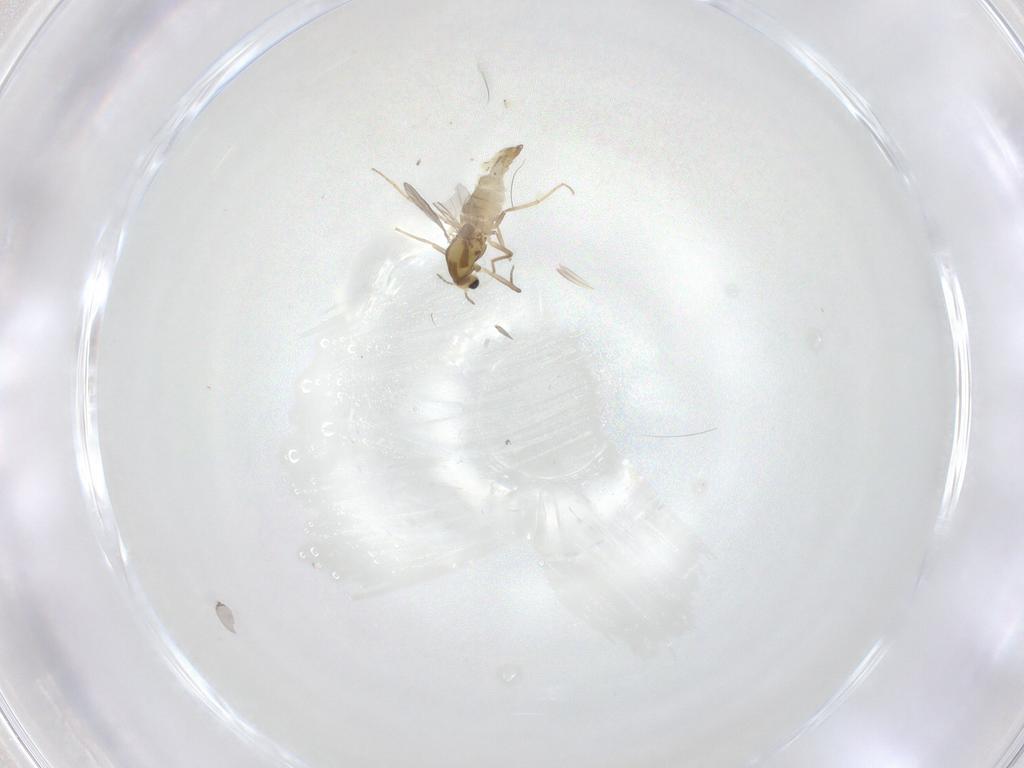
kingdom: Animalia
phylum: Arthropoda
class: Insecta
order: Diptera
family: Chironomidae
